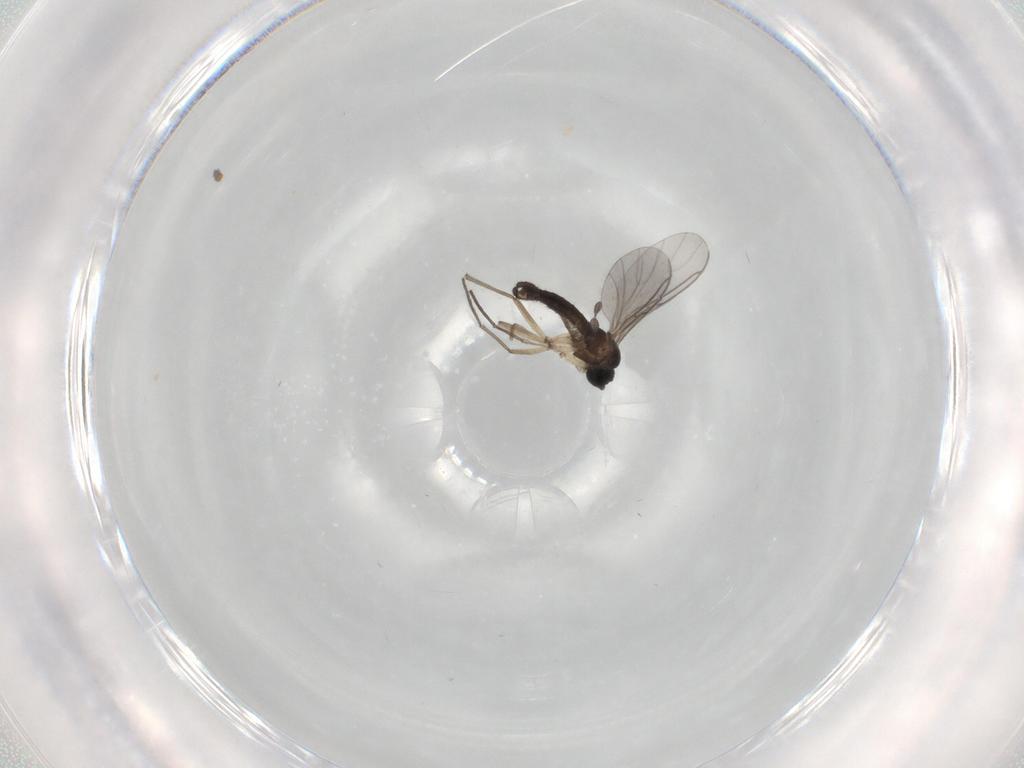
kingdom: Animalia
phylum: Arthropoda
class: Insecta
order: Diptera
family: Sciaridae
